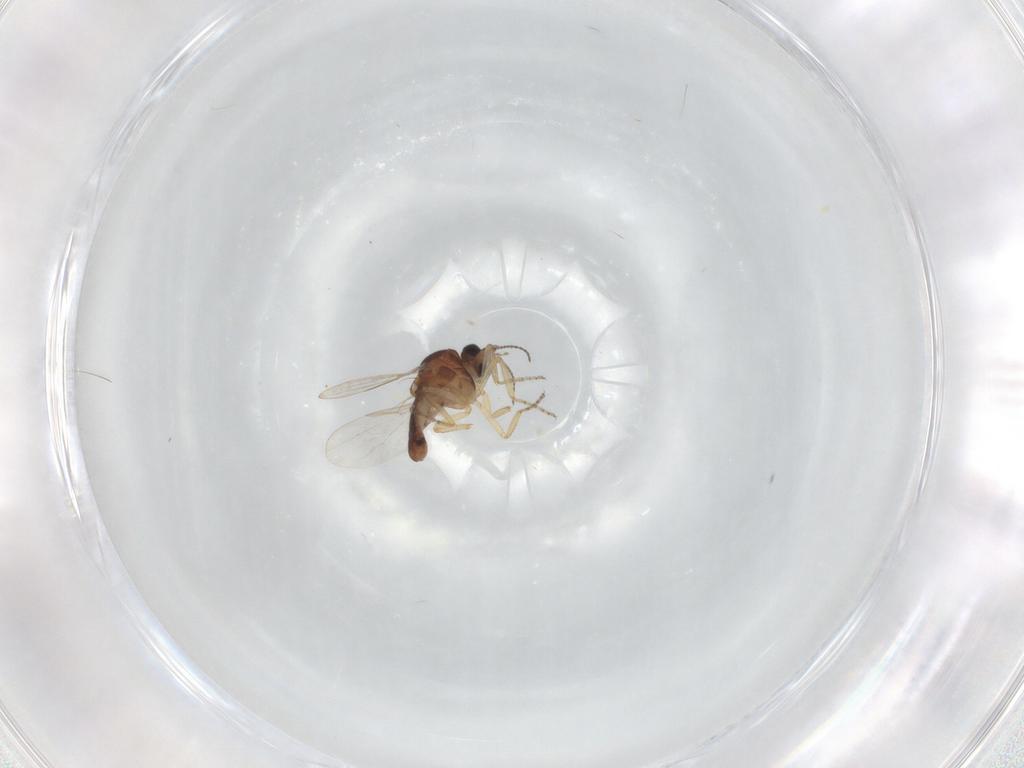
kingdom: Animalia
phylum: Arthropoda
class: Insecta
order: Diptera
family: Ceratopogonidae
